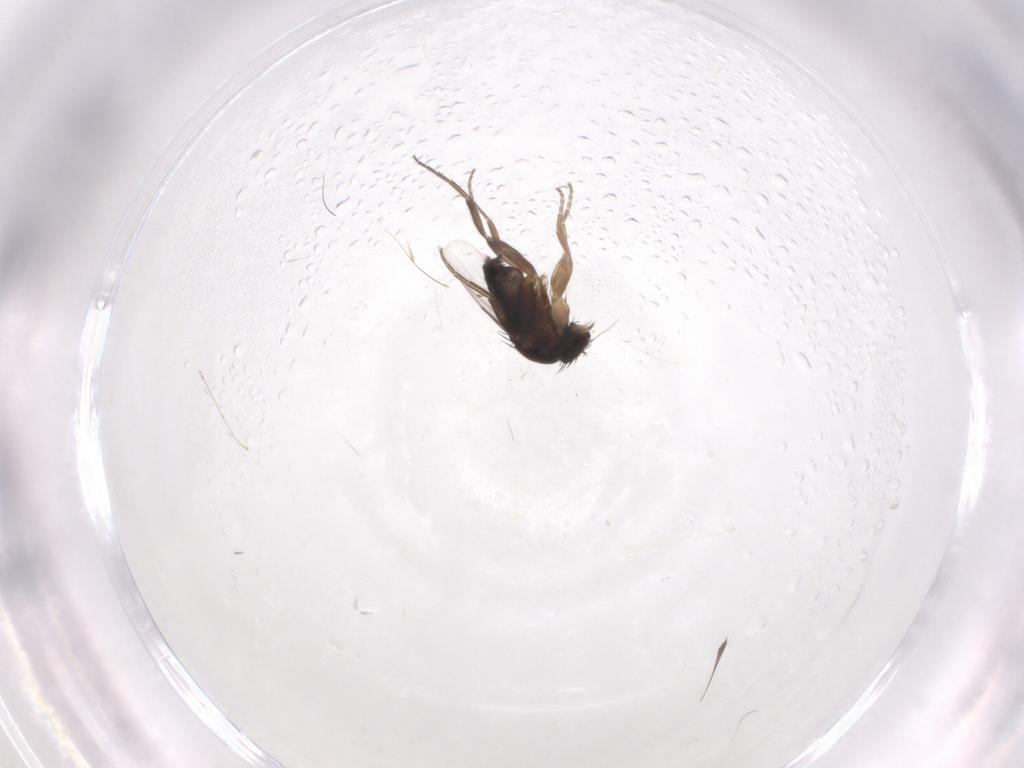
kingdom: Animalia
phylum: Arthropoda
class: Insecta
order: Diptera
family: Phoridae
